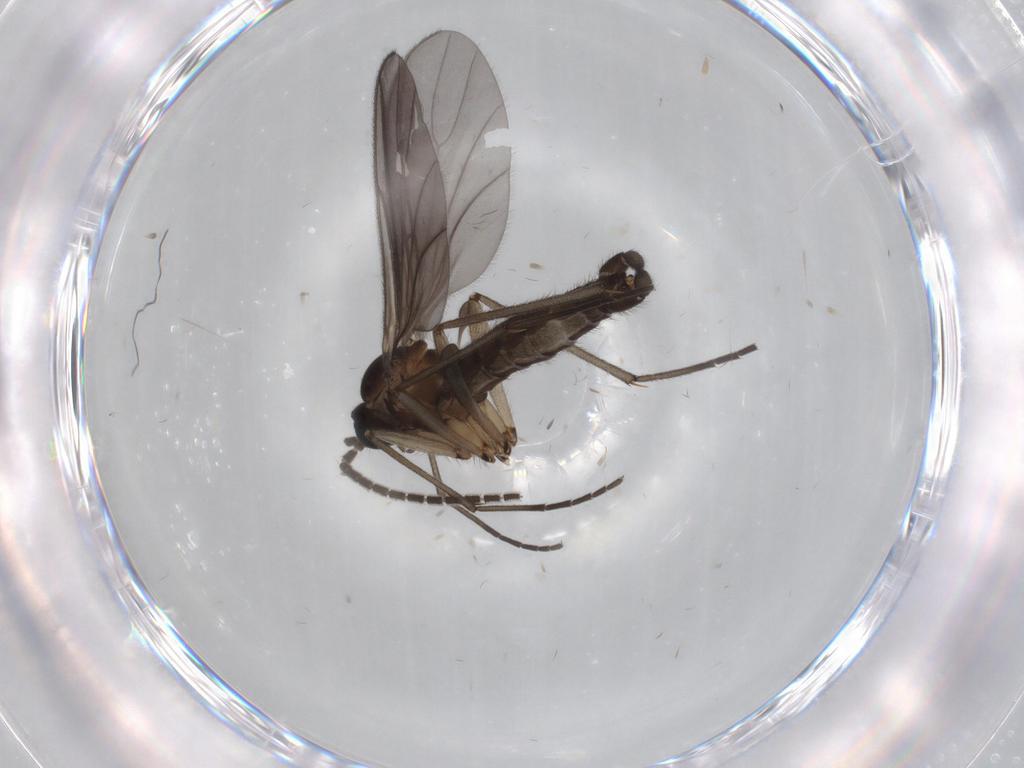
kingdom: Animalia
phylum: Arthropoda
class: Insecta
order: Diptera
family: Sciaridae
